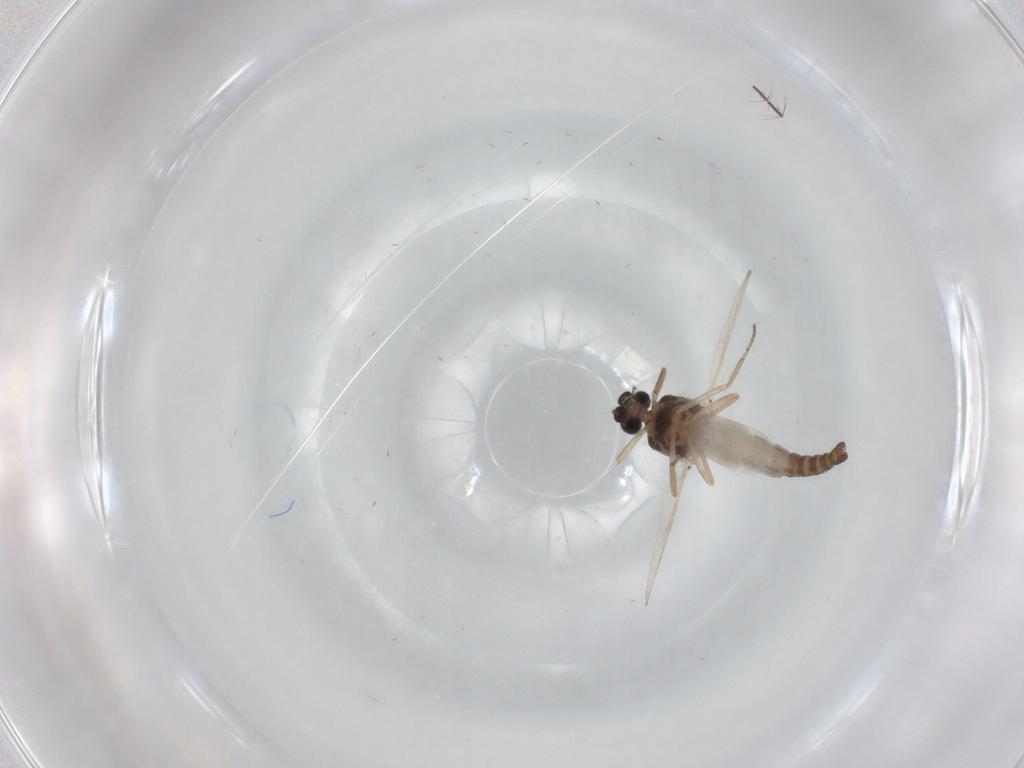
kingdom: Animalia
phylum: Arthropoda
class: Insecta
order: Diptera
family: Ceratopogonidae
